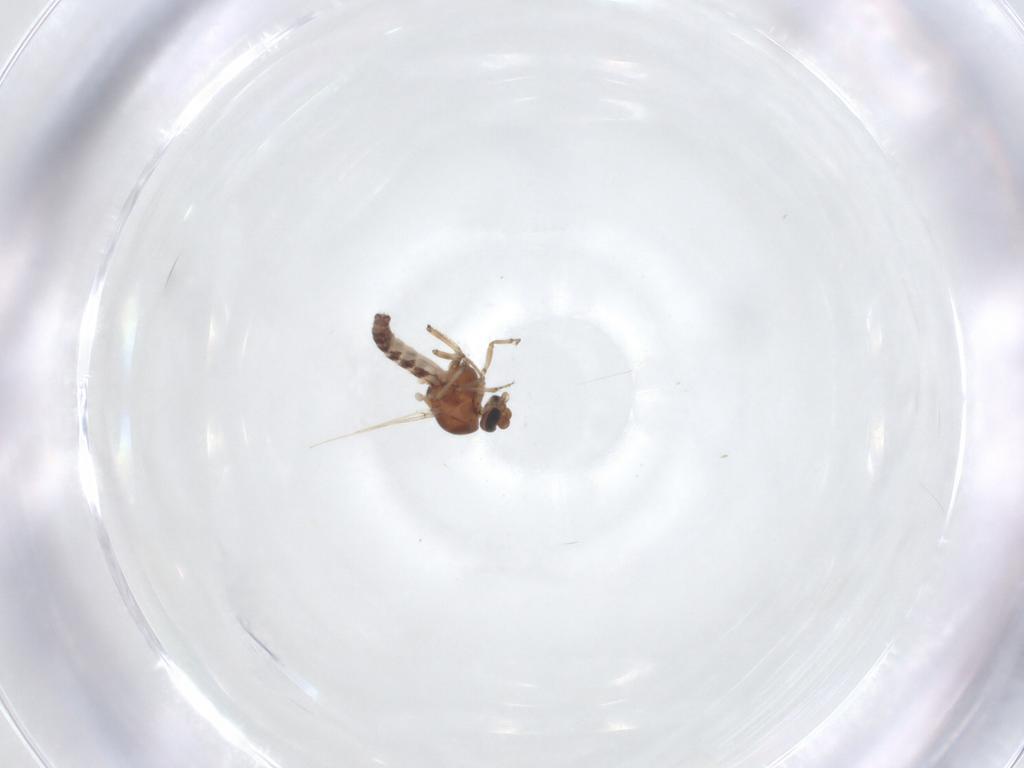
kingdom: Animalia
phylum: Arthropoda
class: Insecta
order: Diptera
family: Ceratopogonidae
